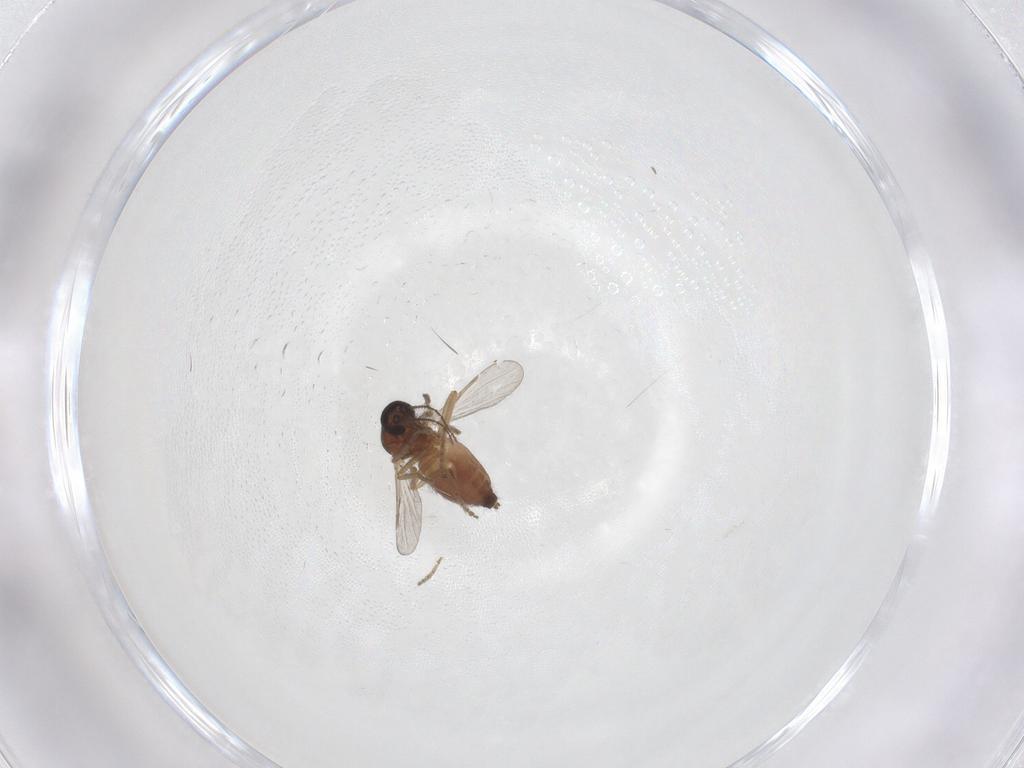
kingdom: Animalia
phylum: Arthropoda
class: Insecta
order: Diptera
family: Ceratopogonidae
